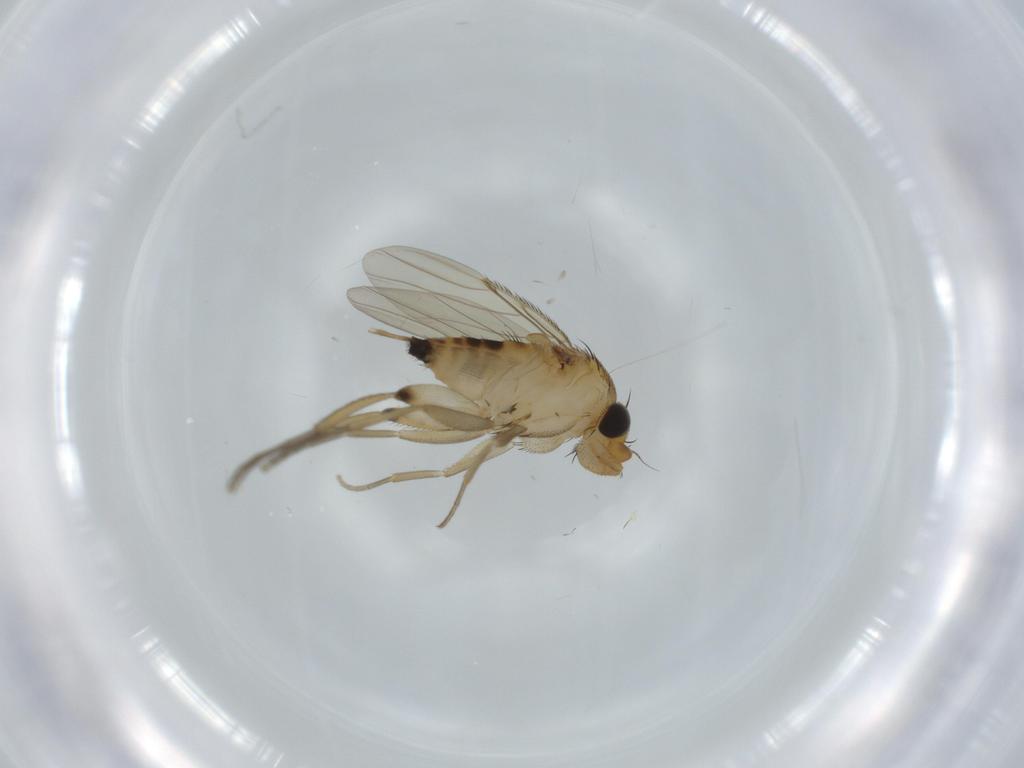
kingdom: Animalia
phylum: Arthropoda
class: Insecta
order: Diptera
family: Phoridae
